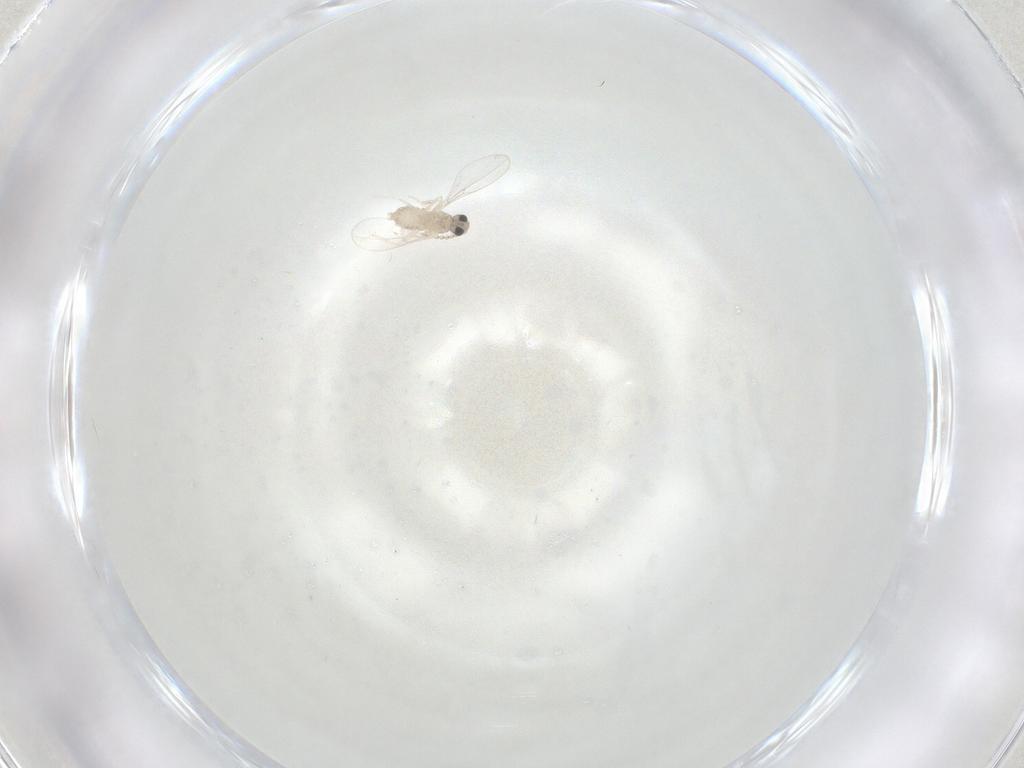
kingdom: Animalia
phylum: Arthropoda
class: Insecta
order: Diptera
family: Cecidomyiidae
